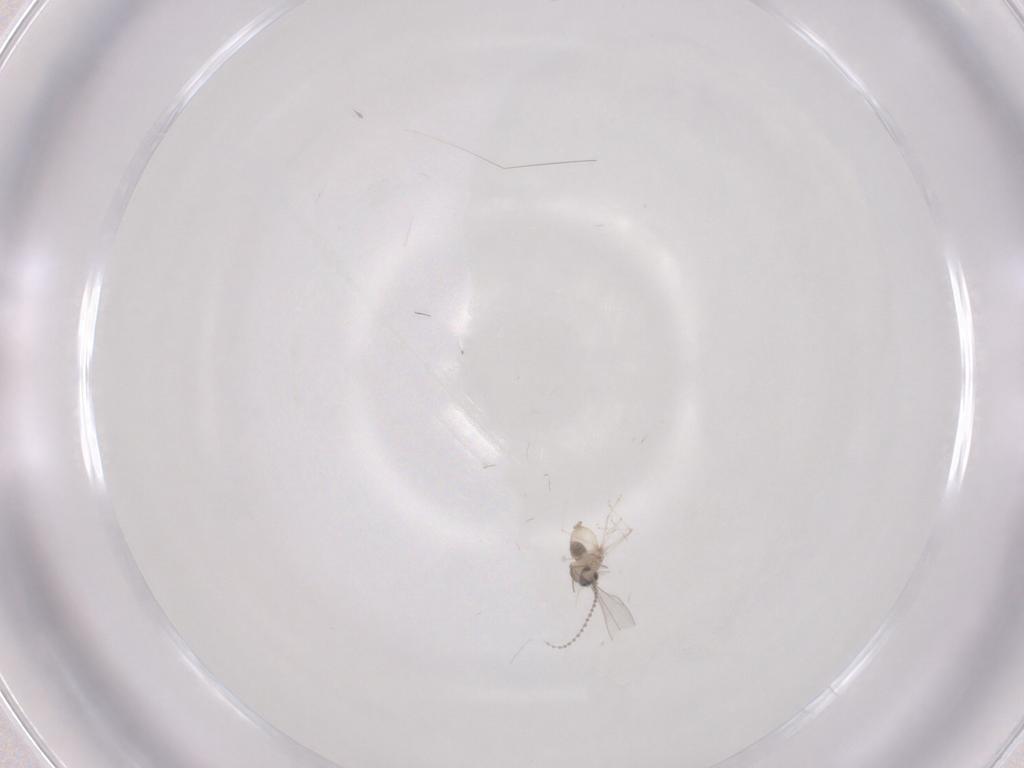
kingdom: Animalia
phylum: Arthropoda
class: Insecta
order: Diptera
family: Cecidomyiidae
